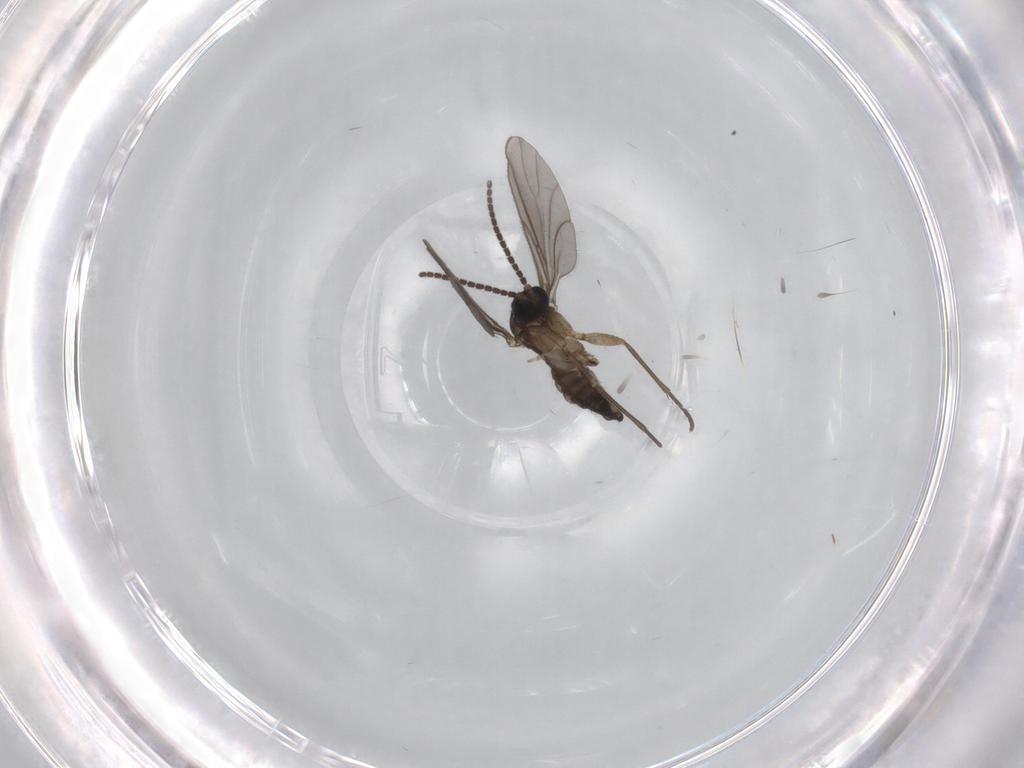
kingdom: Animalia
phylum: Arthropoda
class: Insecta
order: Diptera
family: Sciaridae
